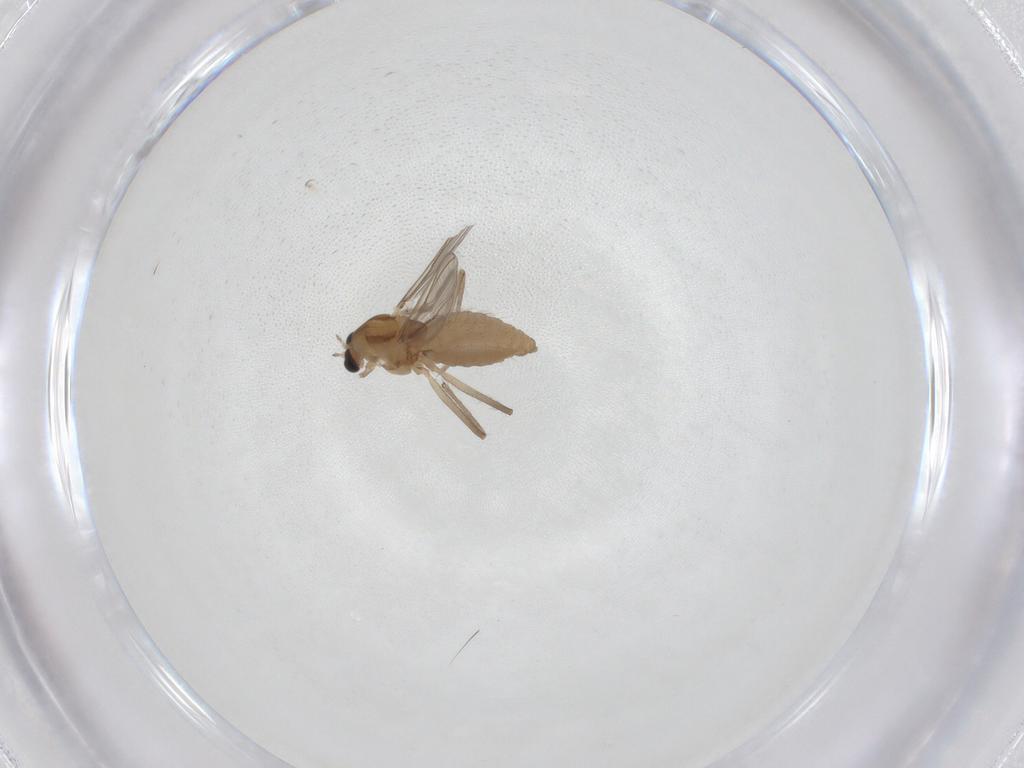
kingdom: Animalia
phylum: Arthropoda
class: Insecta
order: Diptera
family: Chironomidae
